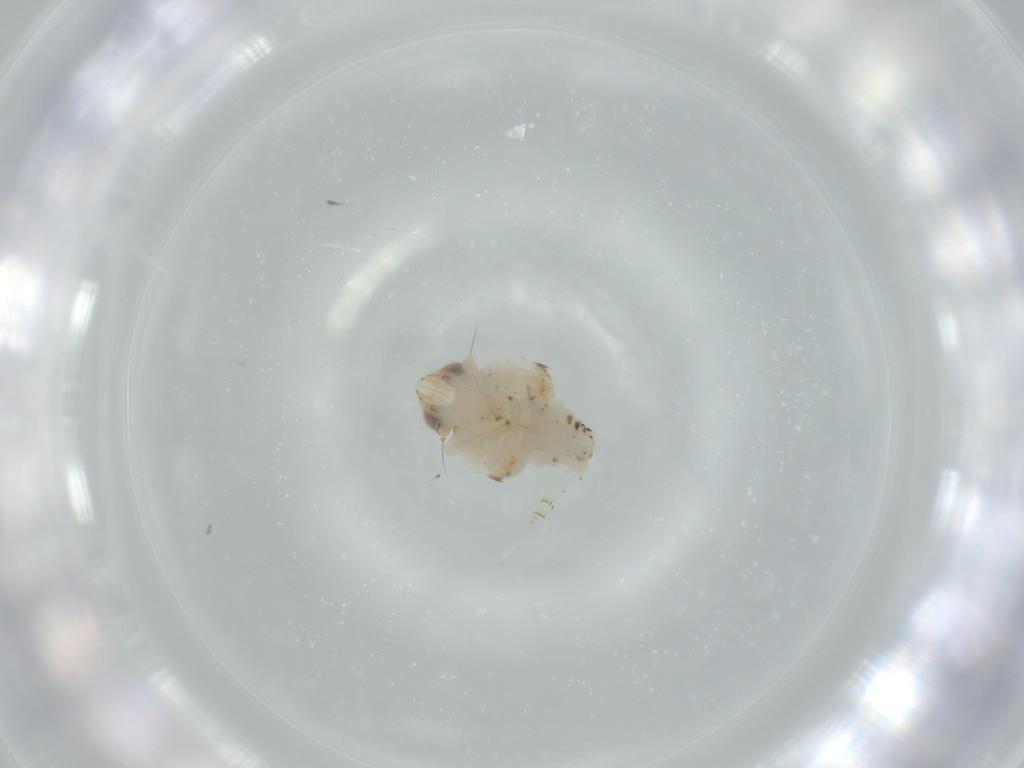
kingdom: Animalia
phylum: Arthropoda
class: Insecta
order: Hemiptera
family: Nogodinidae
